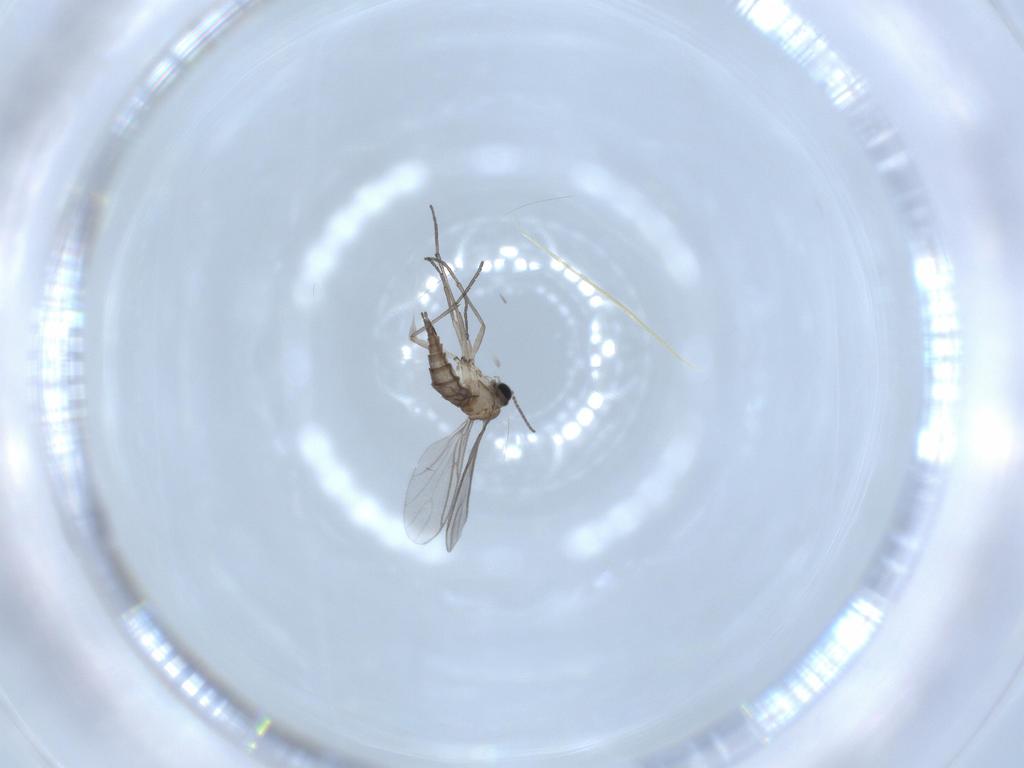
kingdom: Animalia
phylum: Arthropoda
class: Insecta
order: Diptera
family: Sciaridae
